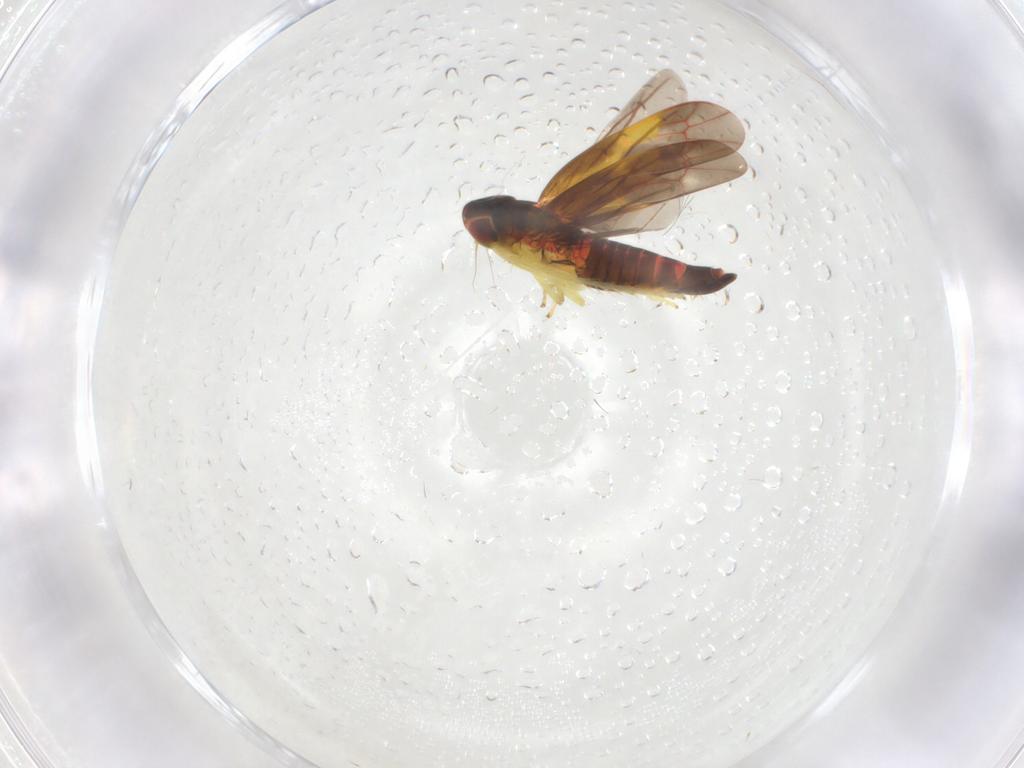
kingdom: Animalia
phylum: Arthropoda
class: Insecta
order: Hemiptera
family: Cicadellidae
